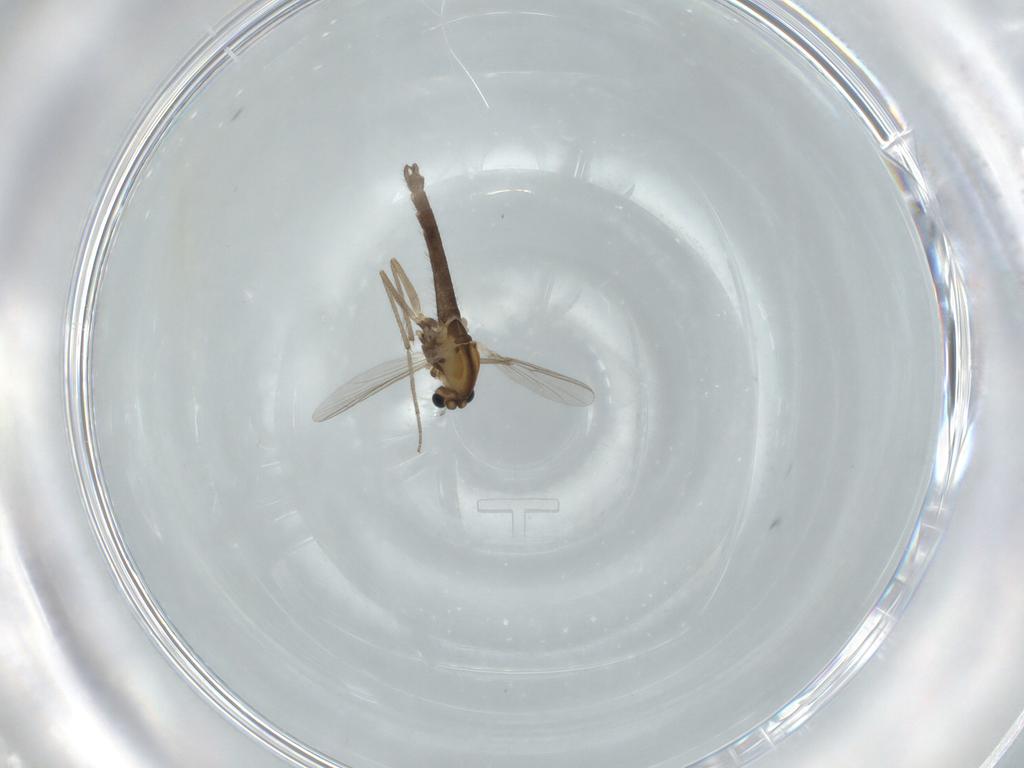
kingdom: Animalia
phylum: Arthropoda
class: Insecta
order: Diptera
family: Chironomidae
